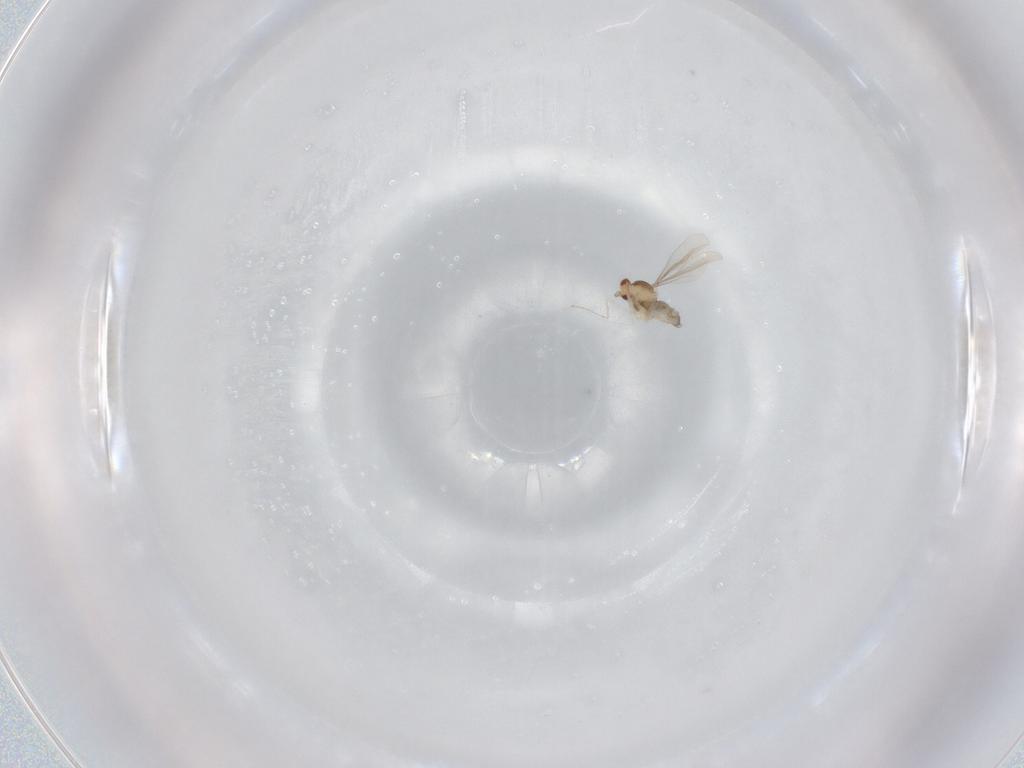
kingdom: Animalia
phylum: Arthropoda
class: Insecta
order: Diptera
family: Cecidomyiidae
